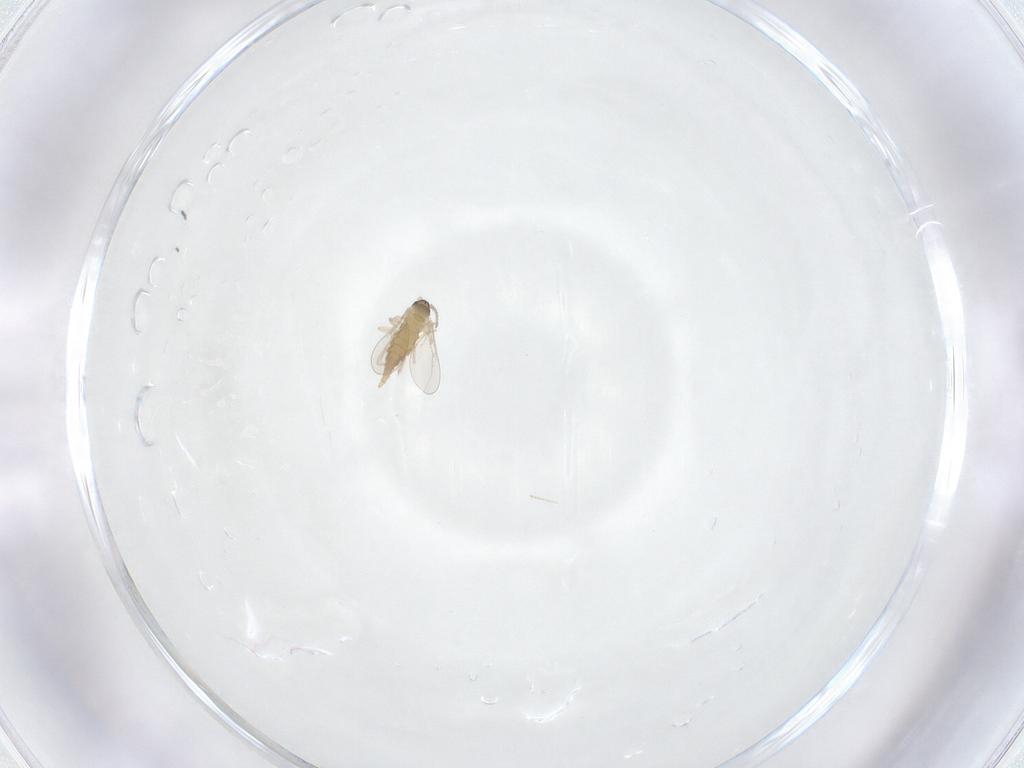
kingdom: Animalia
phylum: Arthropoda
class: Insecta
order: Diptera
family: Cecidomyiidae
